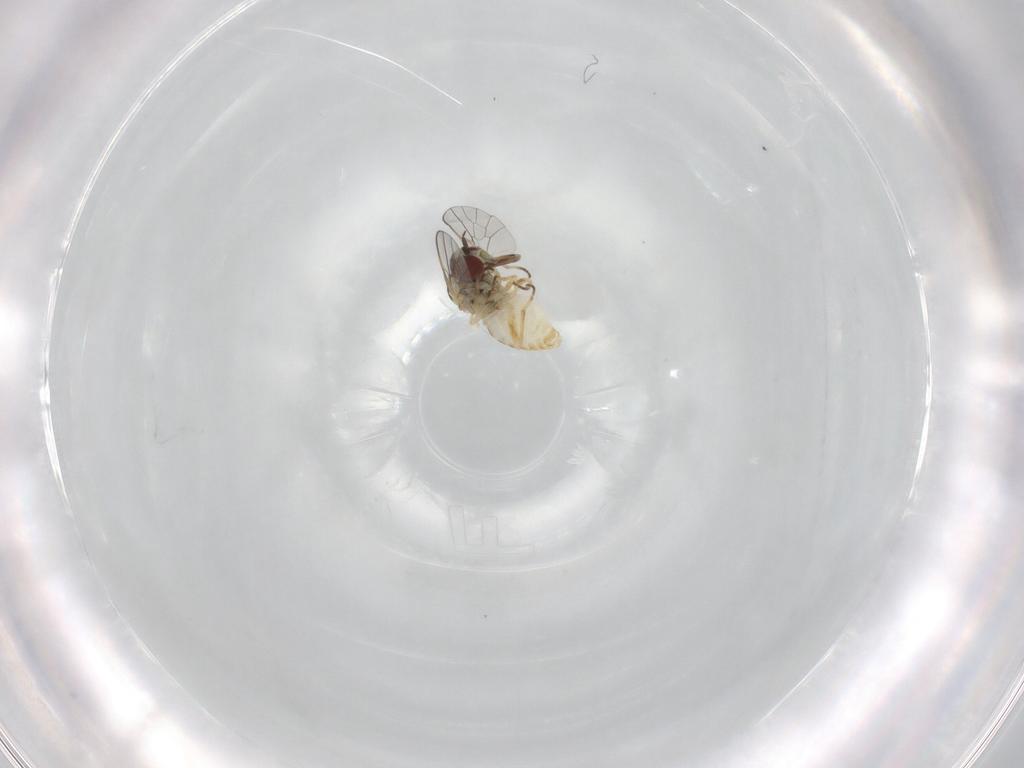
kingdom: Animalia
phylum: Arthropoda
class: Insecta
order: Diptera
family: Mythicomyiidae
